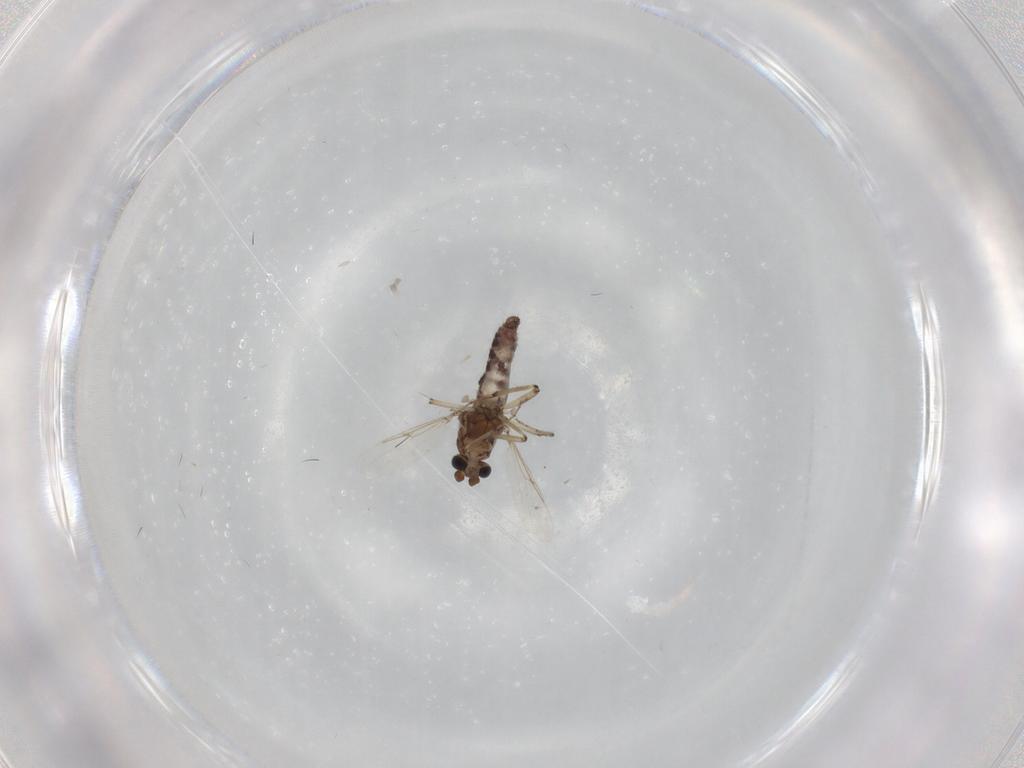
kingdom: Animalia
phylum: Arthropoda
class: Insecta
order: Diptera
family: Ceratopogonidae
